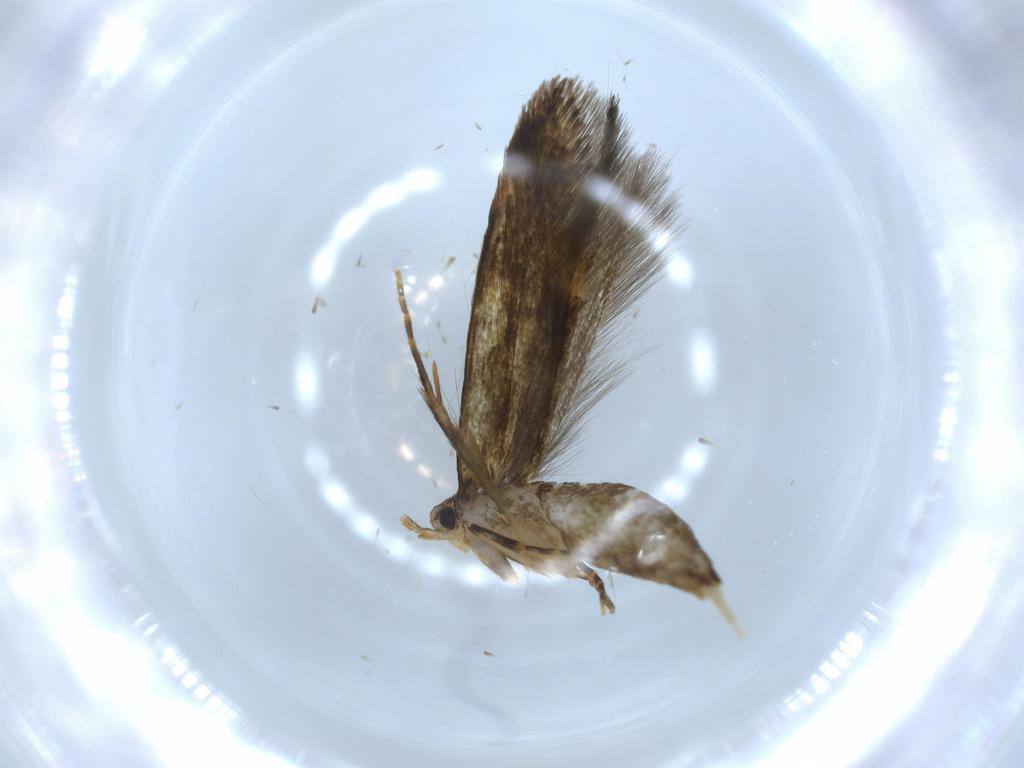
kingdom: Animalia
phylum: Arthropoda
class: Insecta
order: Lepidoptera
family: Tineidae
